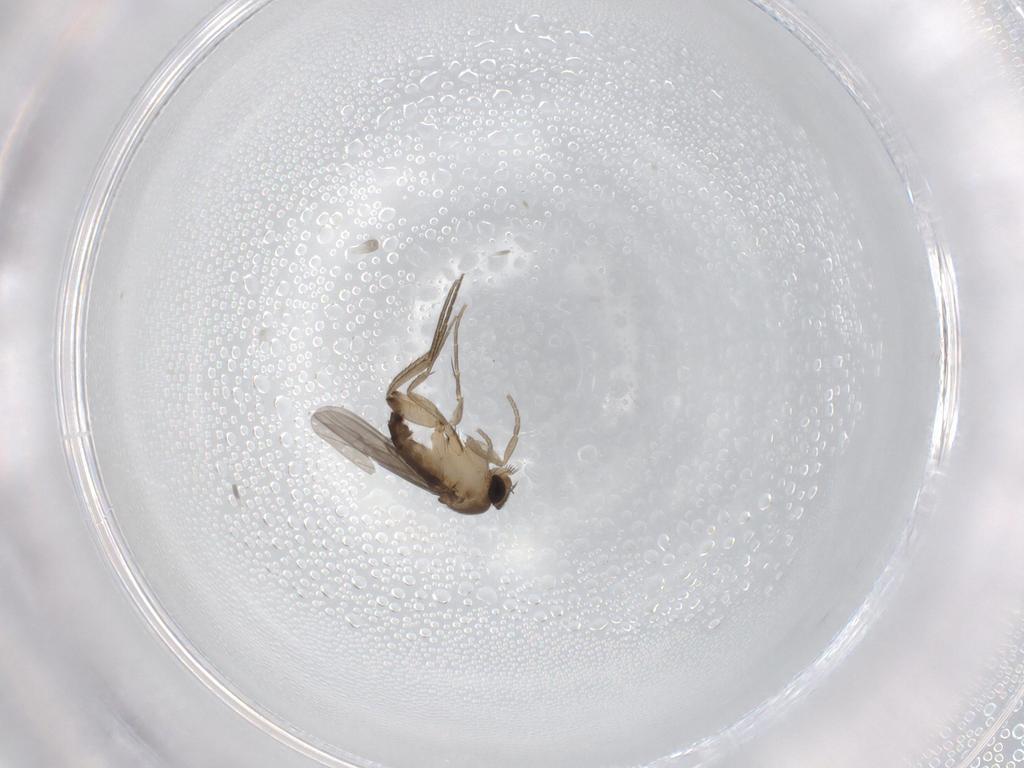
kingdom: Animalia
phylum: Arthropoda
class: Insecta
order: Diptera
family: Phoridae
